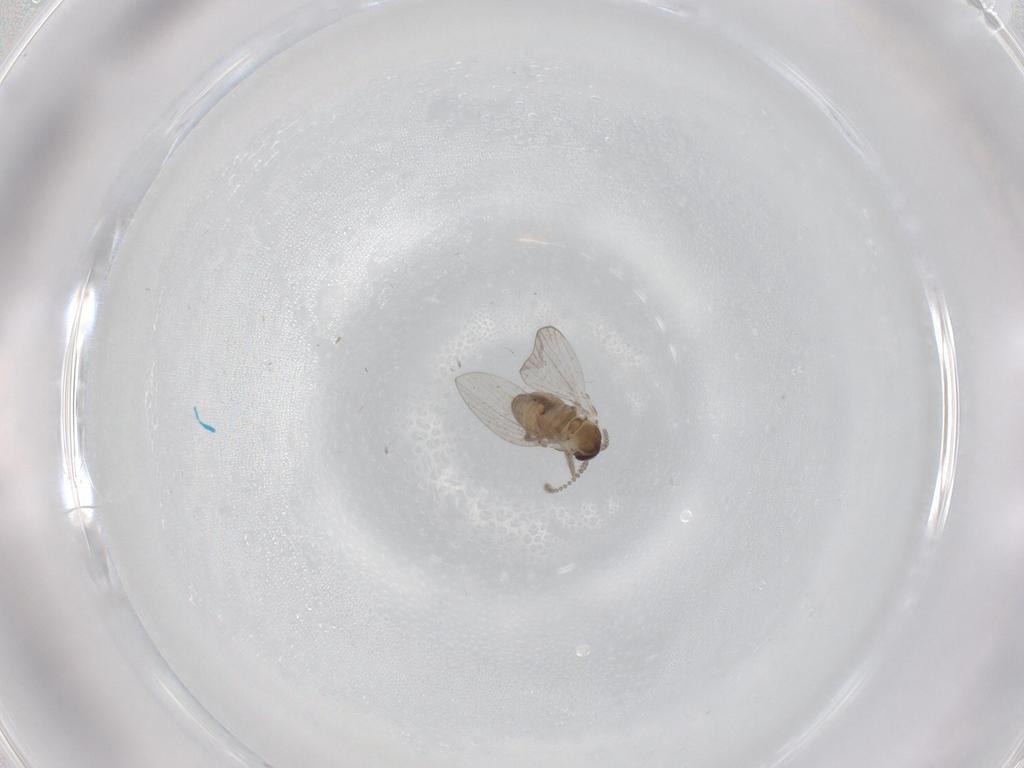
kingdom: Animalia
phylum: Arthropoda
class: Insecta
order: Diptera
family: Psychodidae
